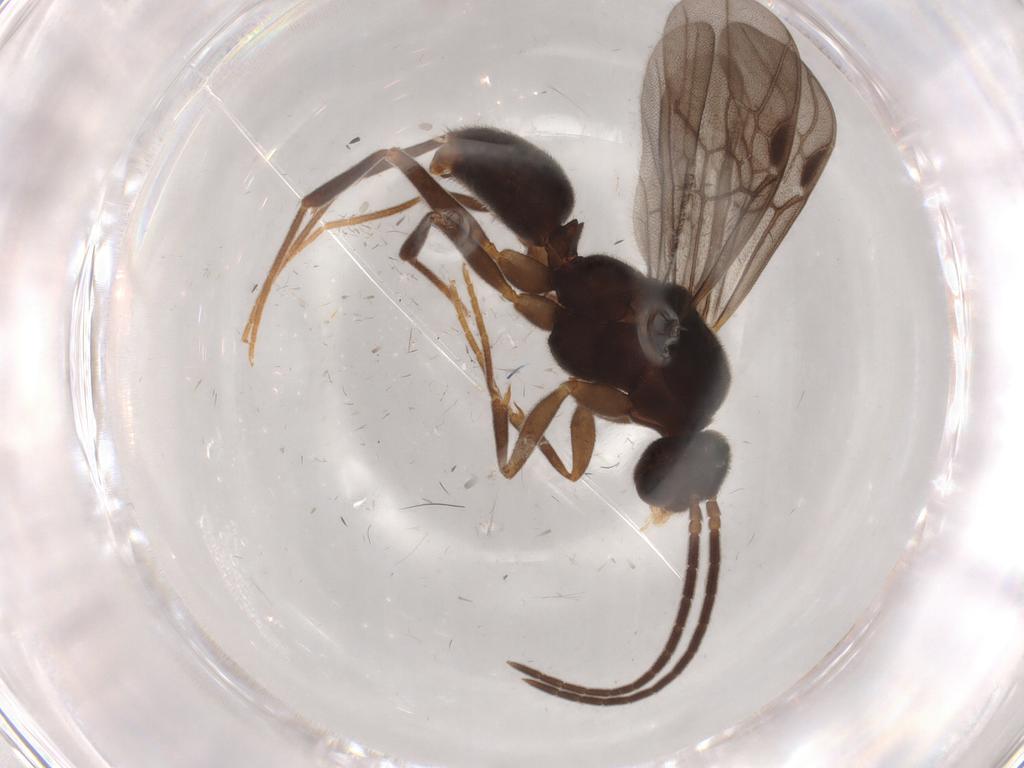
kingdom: Animalia
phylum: Arthropoda
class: Insecta
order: Hymenoptera
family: Formicidae
